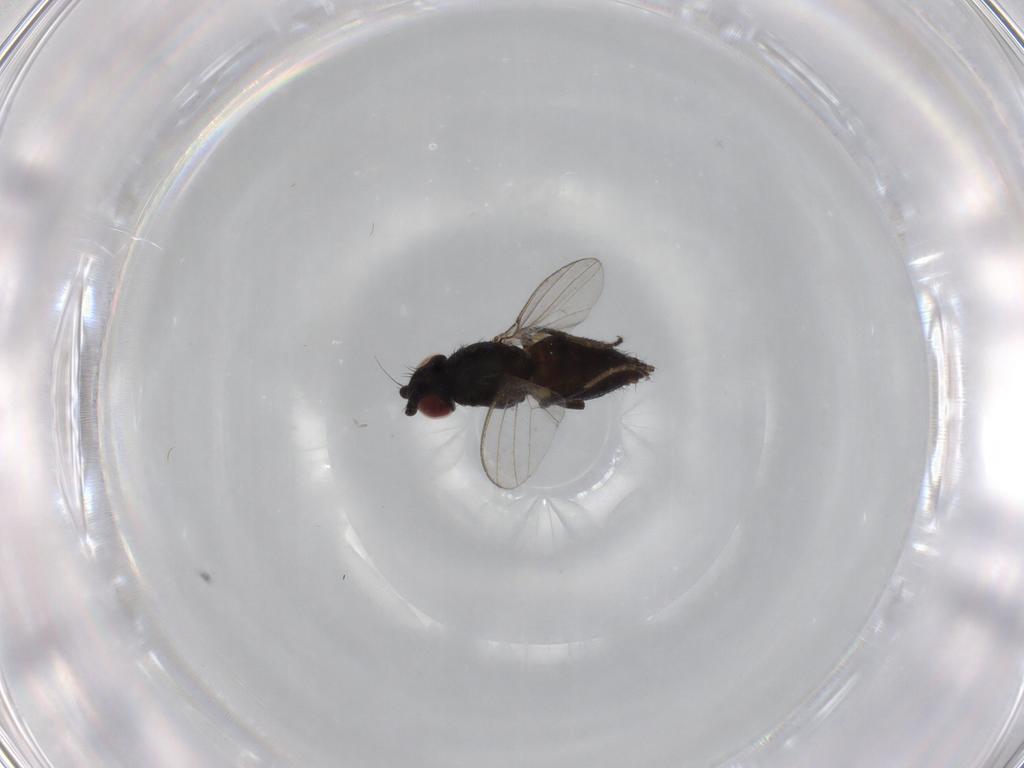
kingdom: Animalia
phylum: Arthropoda
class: Insecta
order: Diptera
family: Milichiidae
